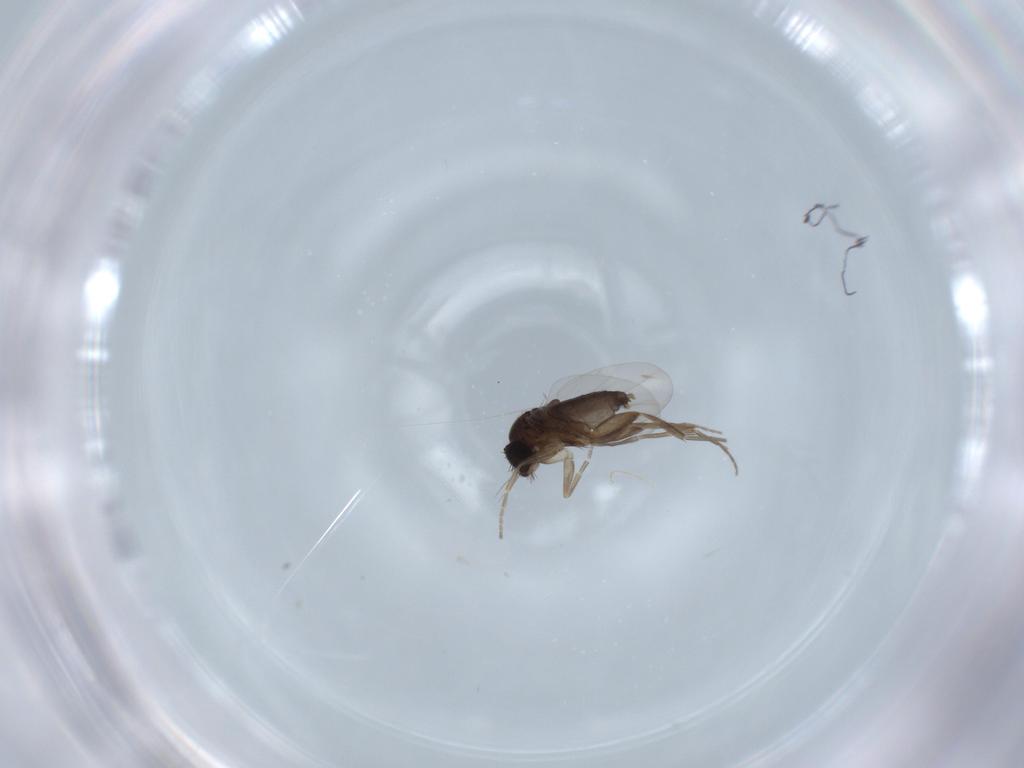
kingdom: Animalia
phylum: Arthropoda
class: Insecta
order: Diptera
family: Phoridae
